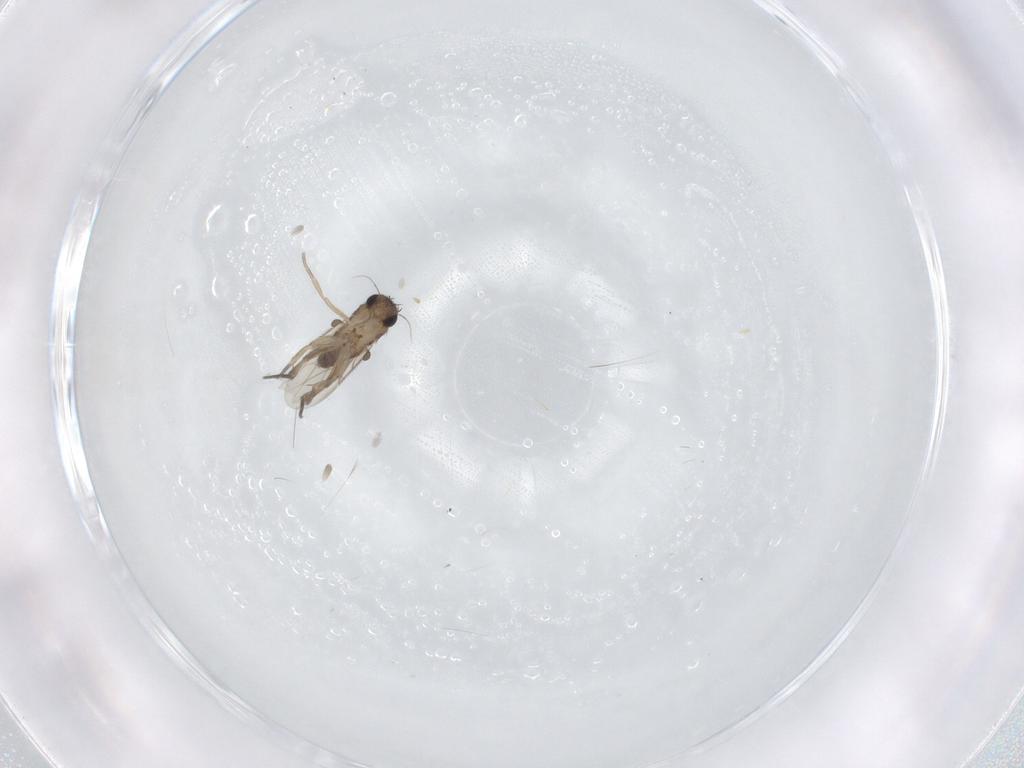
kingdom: Animalia
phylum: Arthropoda
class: Insecta
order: Diptera
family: Phoridae
